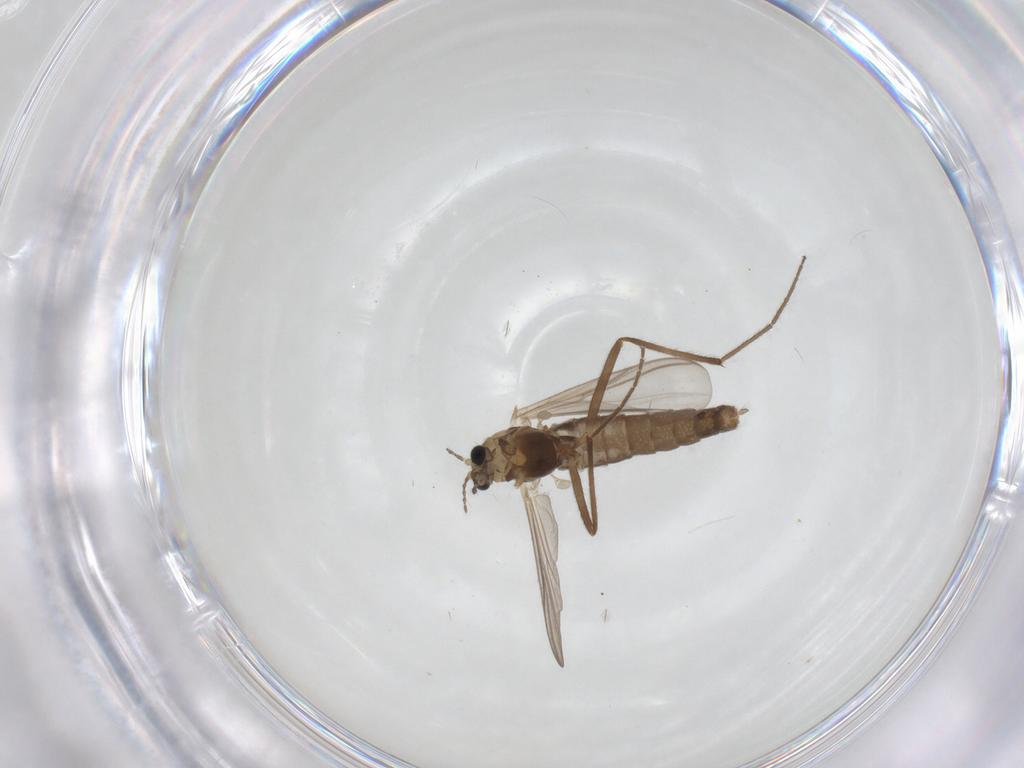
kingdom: Animalia
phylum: Arthropoda
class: Insecta
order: Diptera
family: Chironomidae
